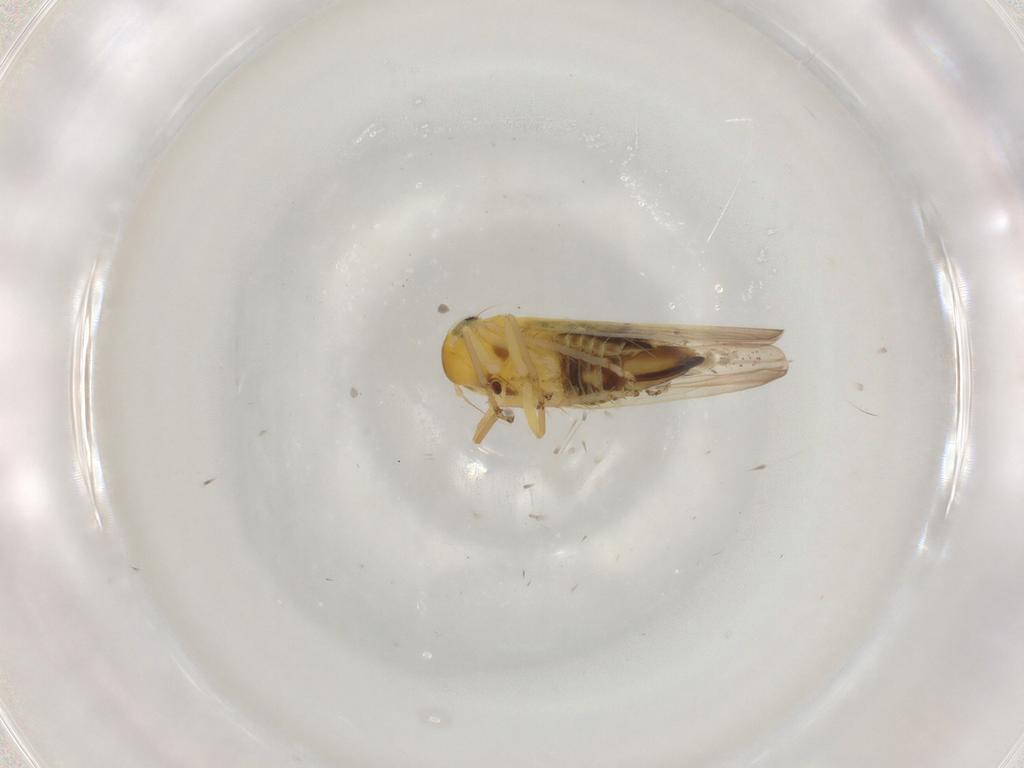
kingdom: Animalia
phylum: Arthropoda
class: Insecta
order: Hemiptera
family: Cicadellidae
